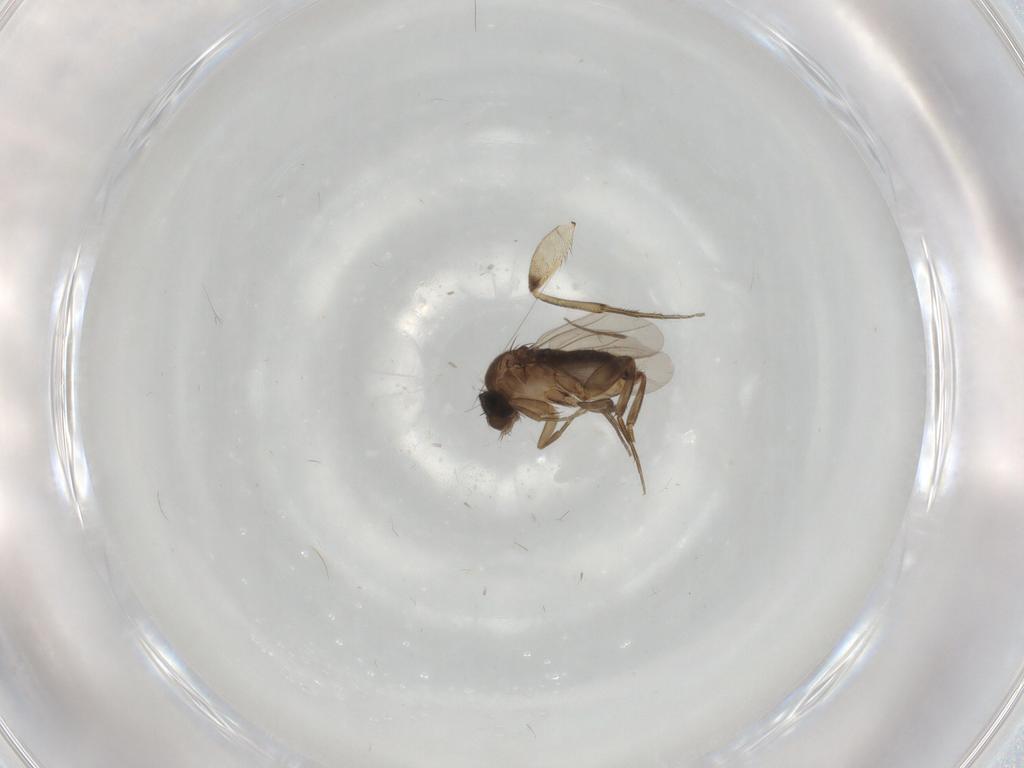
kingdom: Animalia
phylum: Arthropoda
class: Insecta
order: Diptera
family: Phoridae
